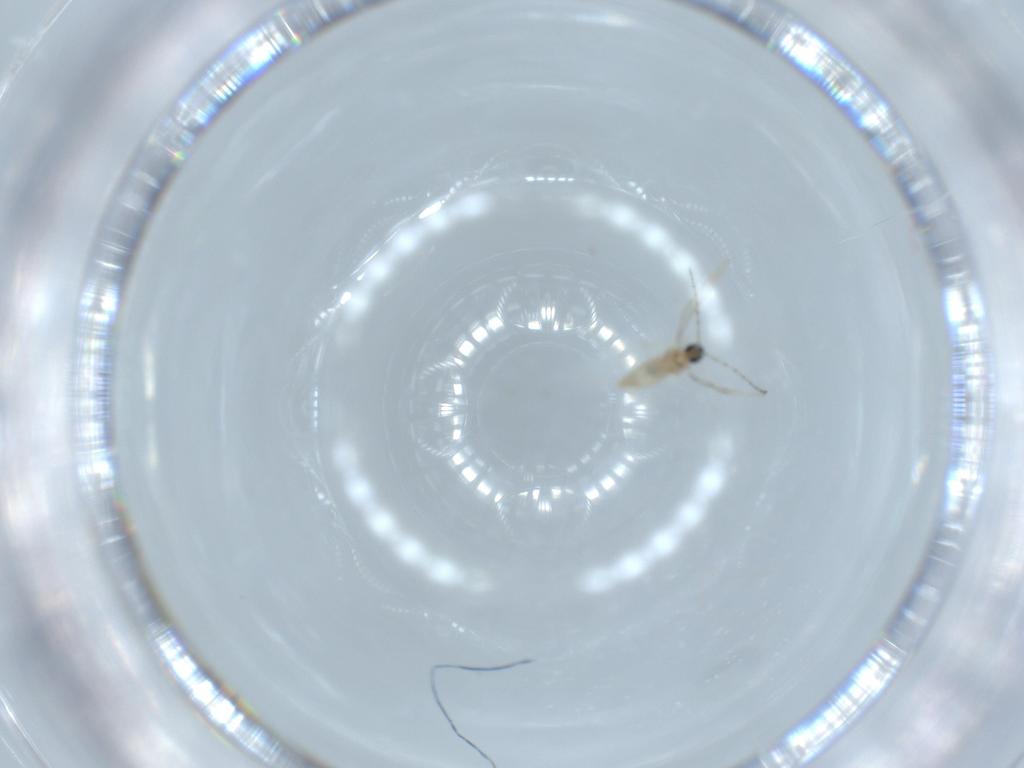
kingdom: Animalia
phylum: Arthropoda
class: Insecta
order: Diptera
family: Cecidomyiidae
